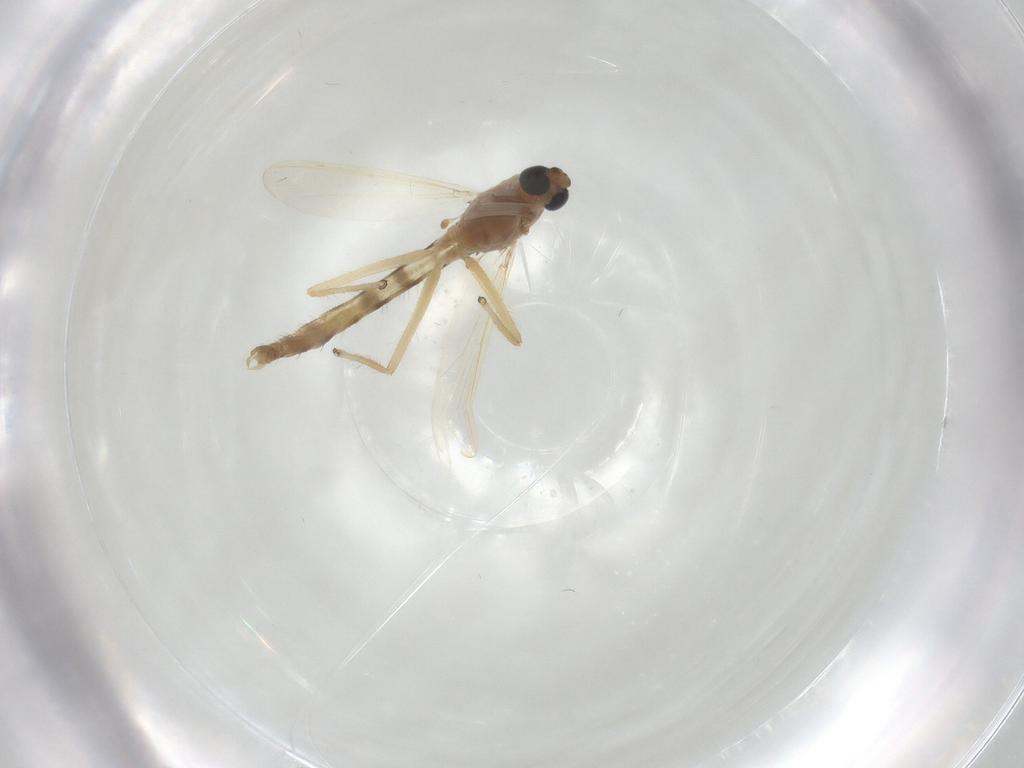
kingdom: Animalia
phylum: Arthropoda
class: Insecta
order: Diptera
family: Chironomidae
